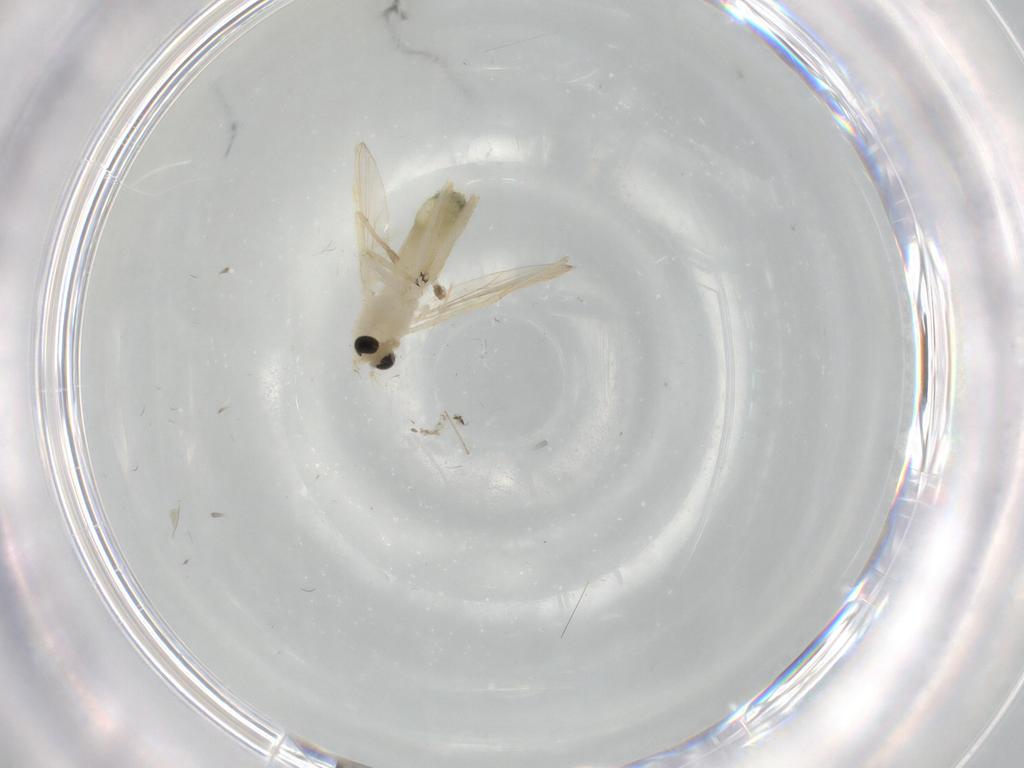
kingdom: Animalia
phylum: Arthropoda
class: Insecta
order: Diptera
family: Chironomidae
